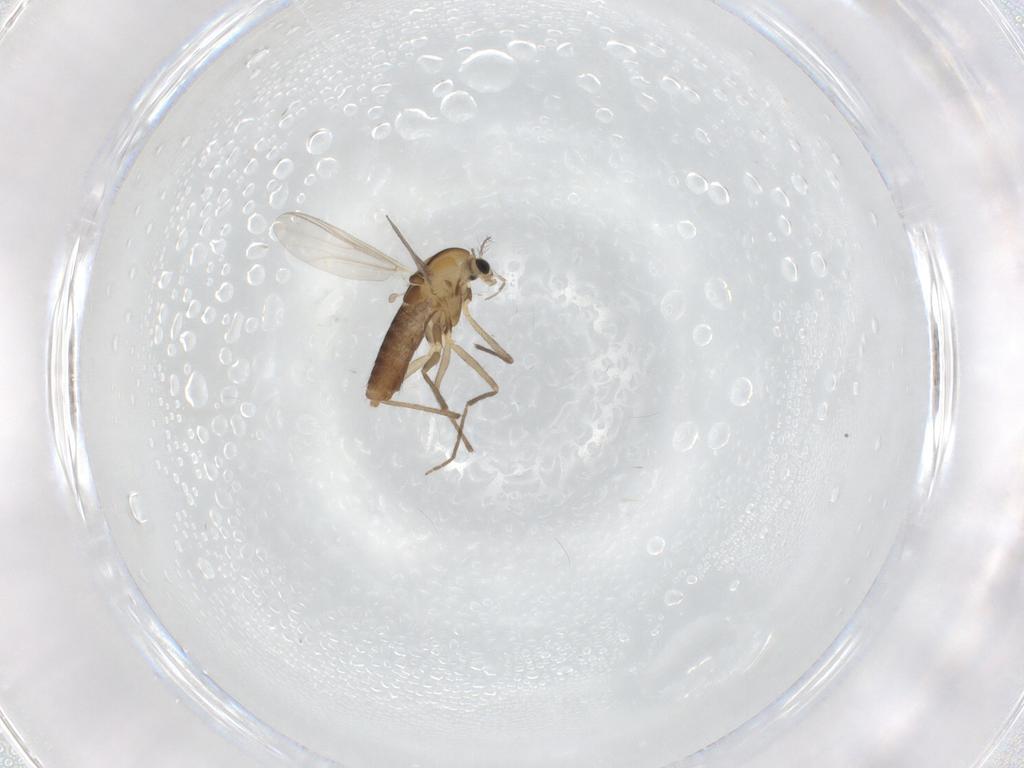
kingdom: Animalia
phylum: Arthropoda
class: Insecta
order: Diptera
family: Chironomidae
